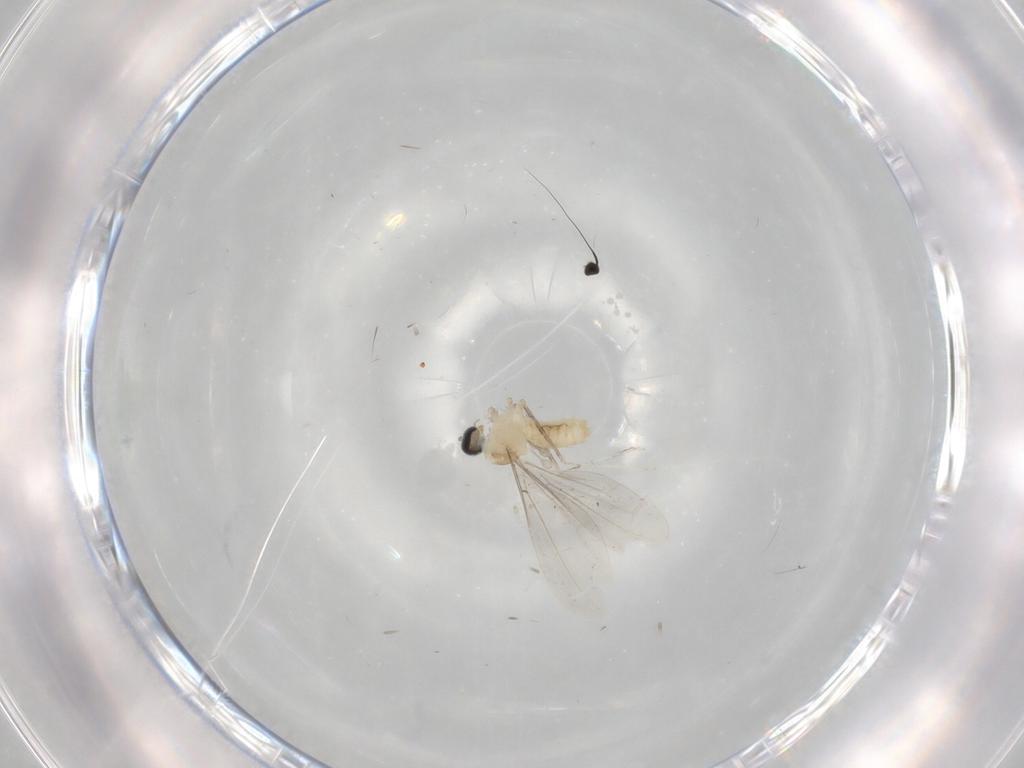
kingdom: Animalia
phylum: Arthropoda
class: Insecta
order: Diptera
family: Cecidomyiidae
